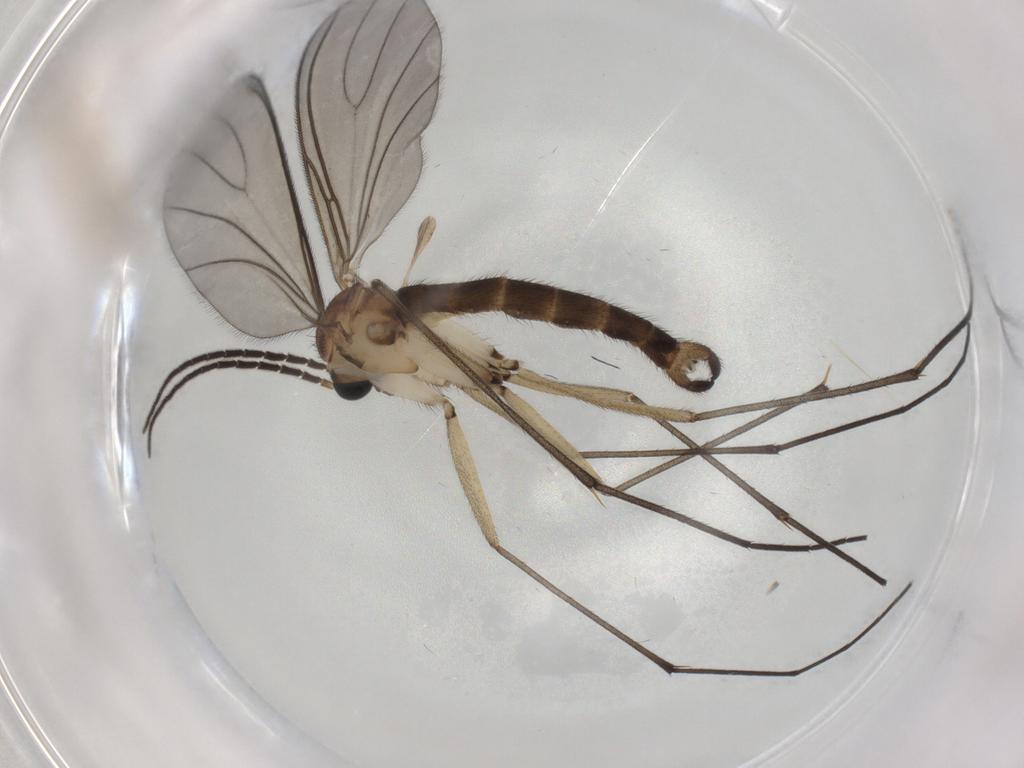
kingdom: Animalia
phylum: Arthropoda
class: Insecta
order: Diptera
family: Sciaridae
